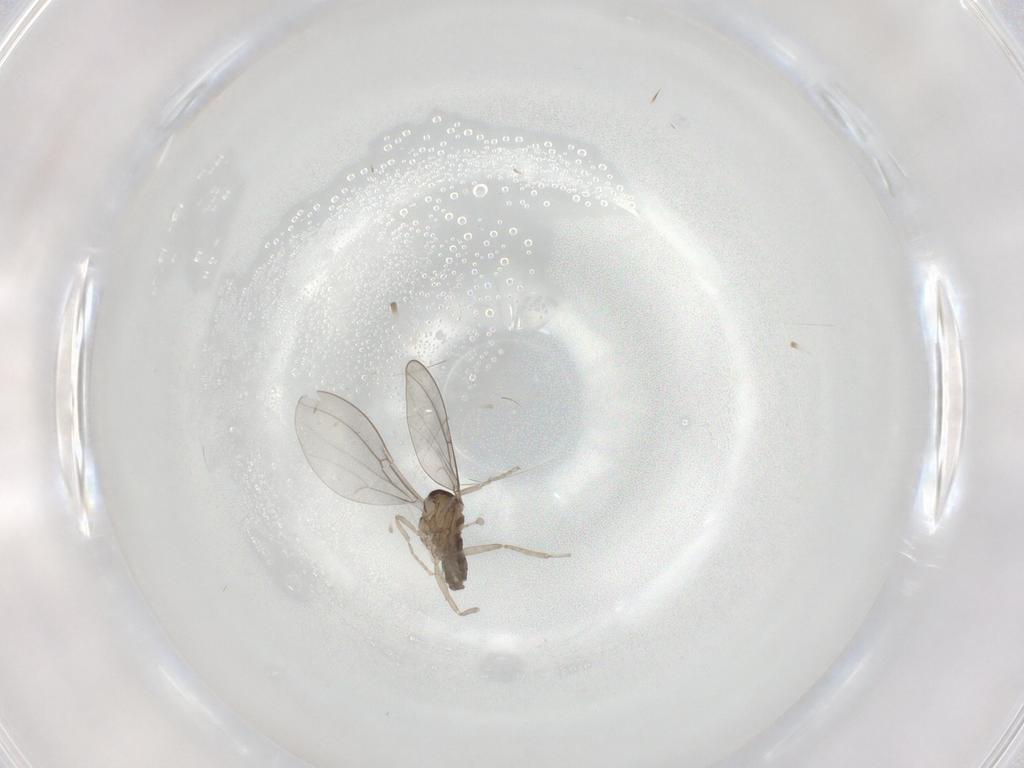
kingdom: Animalia
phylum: Arthropoda
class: Insecta
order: Diptera
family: Cecidomyiidae
